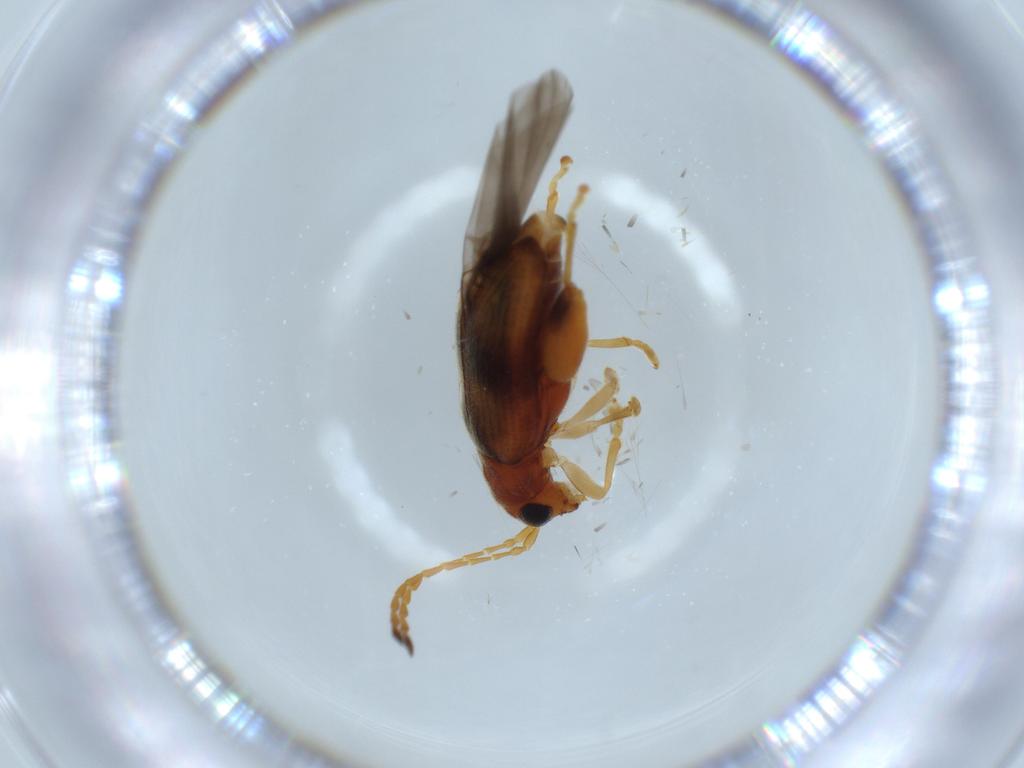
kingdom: Animalia
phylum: Arthropoda
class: Insecta
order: Coleoptera
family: Chrysomelidae
